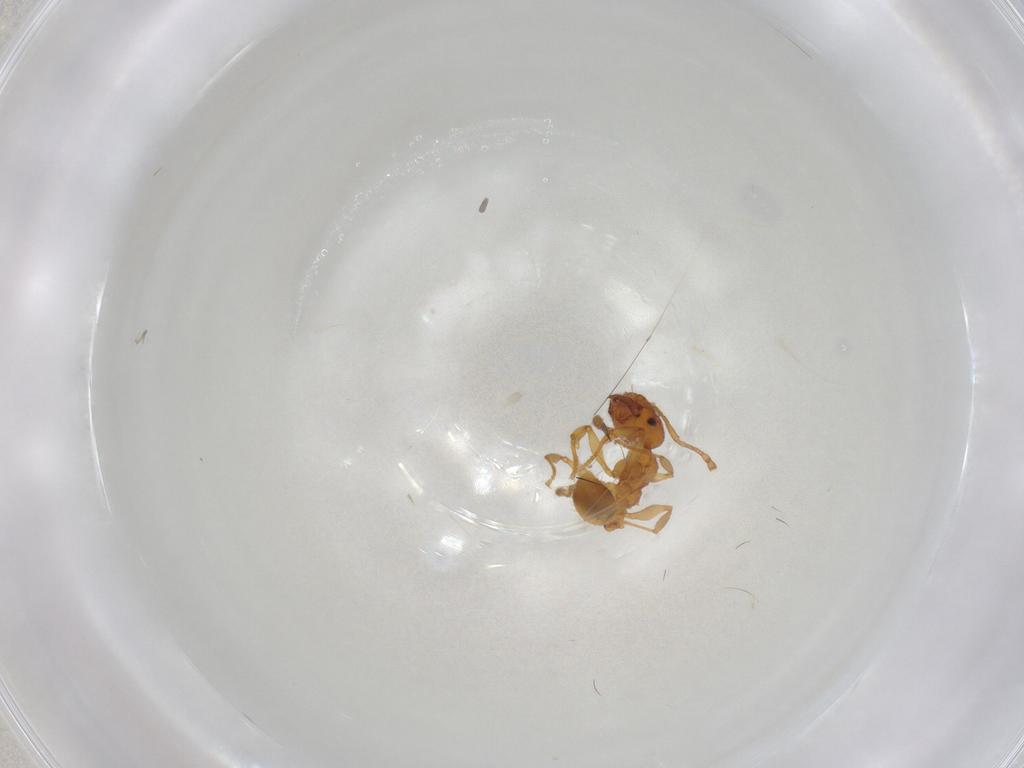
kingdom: Animalia
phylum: Arthropoda
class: Insecta
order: Hymenoptera
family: Formicidae
